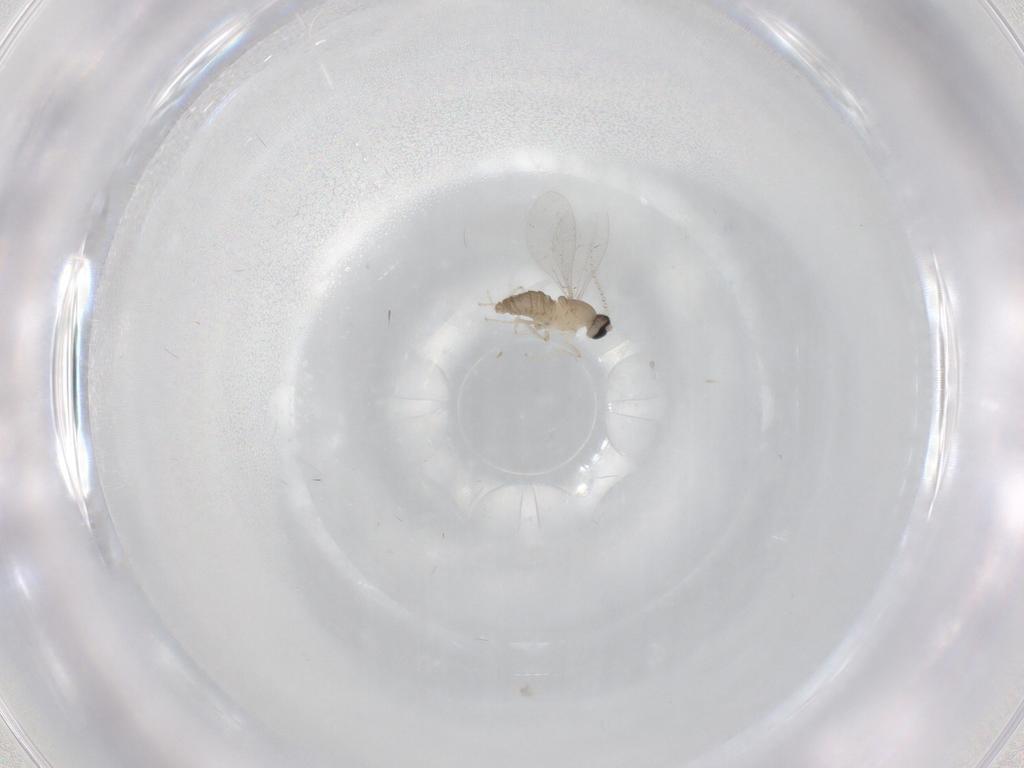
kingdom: Animalia
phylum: Arthropoda
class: Insecta
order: Diptera
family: Cecidomyiidae
